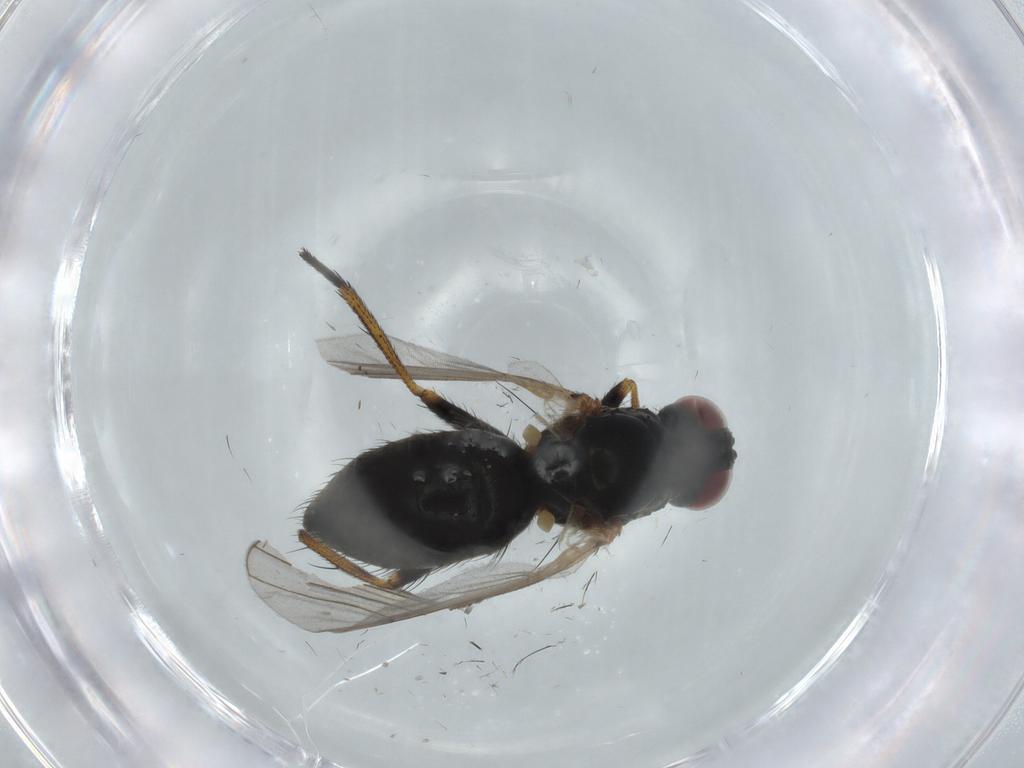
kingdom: Animalia
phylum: Arthropoda
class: Insecta
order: Diptera
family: Muscidae
